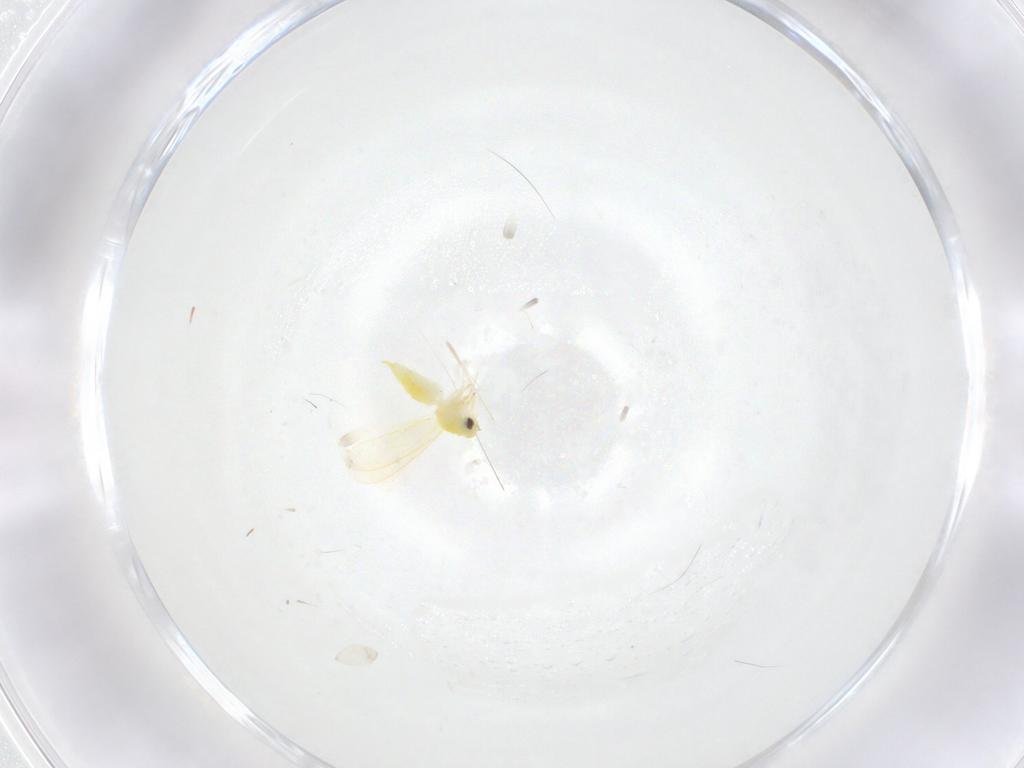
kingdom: Animalia
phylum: Arthropoda
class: Insecta
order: Hemiptera
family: Aleyrodidae
